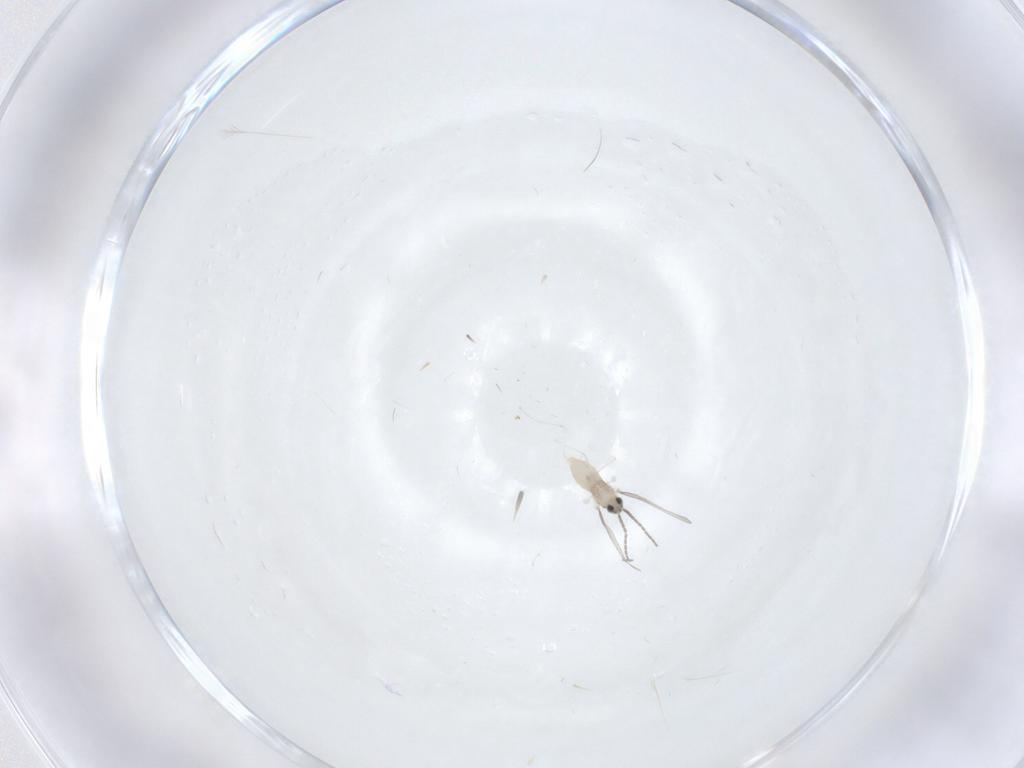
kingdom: Animalia
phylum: Arthropoda
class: Insecta
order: Diptera
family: Cecidomyiidae
